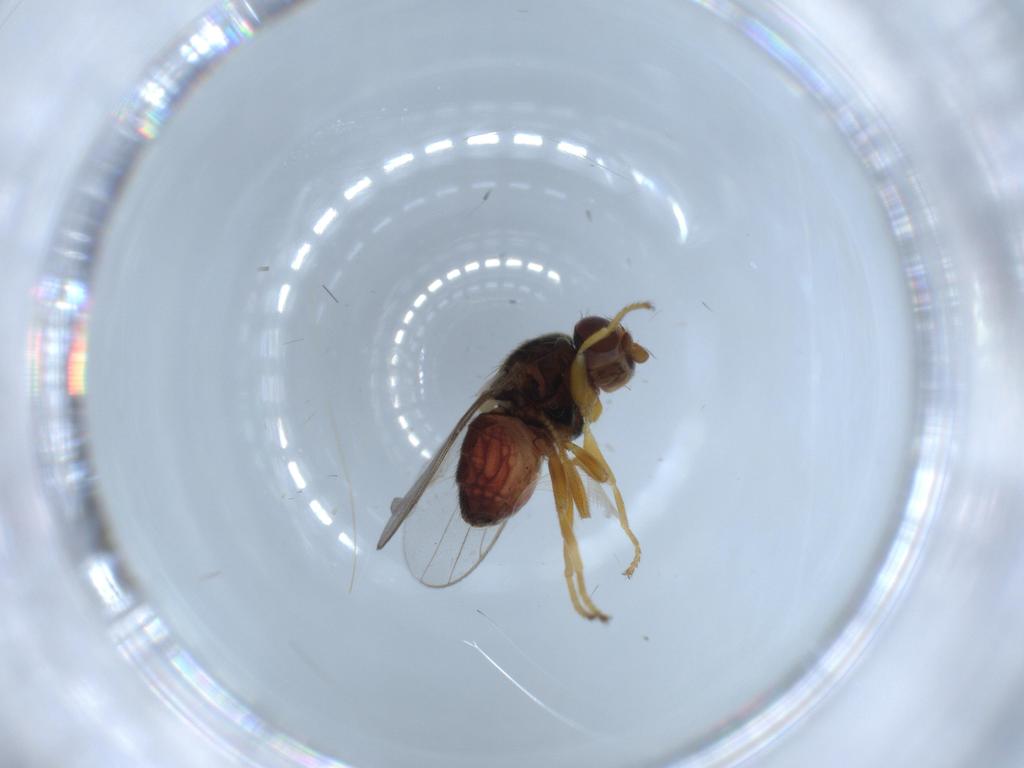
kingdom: Animalia
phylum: Arthropoda
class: Insecta
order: Diptera
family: Chloropidae
